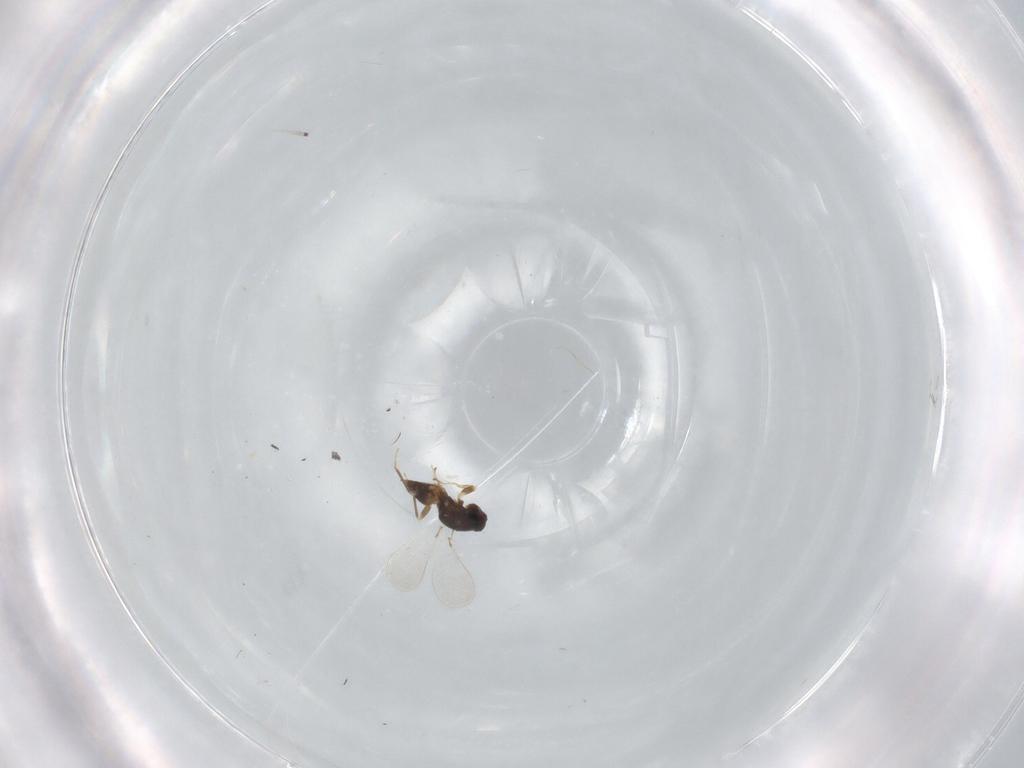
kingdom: Animalia
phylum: Arthropoda
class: Insecta
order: Hymenoptera
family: Mymaridae
